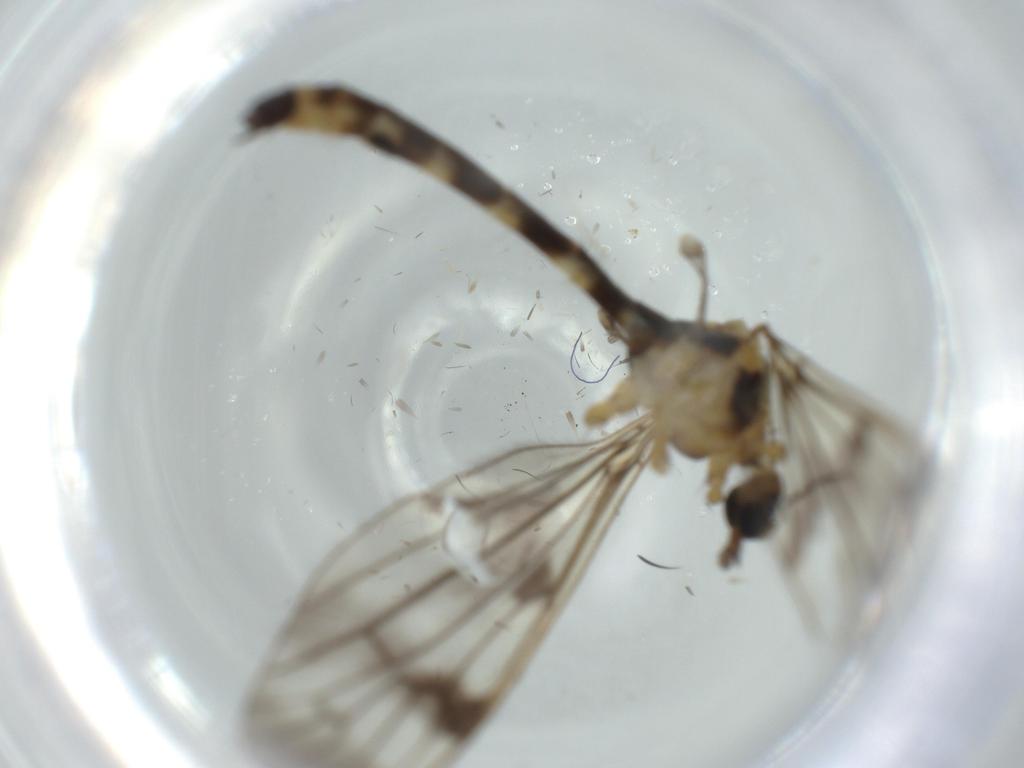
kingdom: Animalia
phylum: Arthropoda
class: Insecta
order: Diptera
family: Limoniidae
